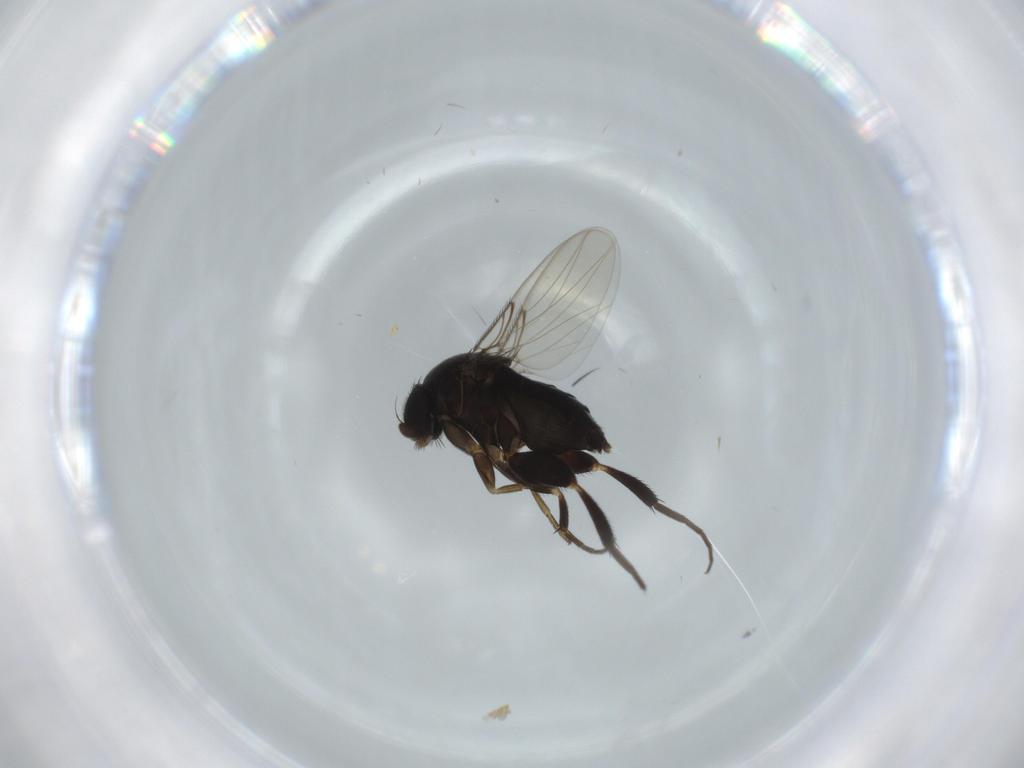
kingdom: Animalia
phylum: Arthropoda
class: Insecta
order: Diptera
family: Phoridae
